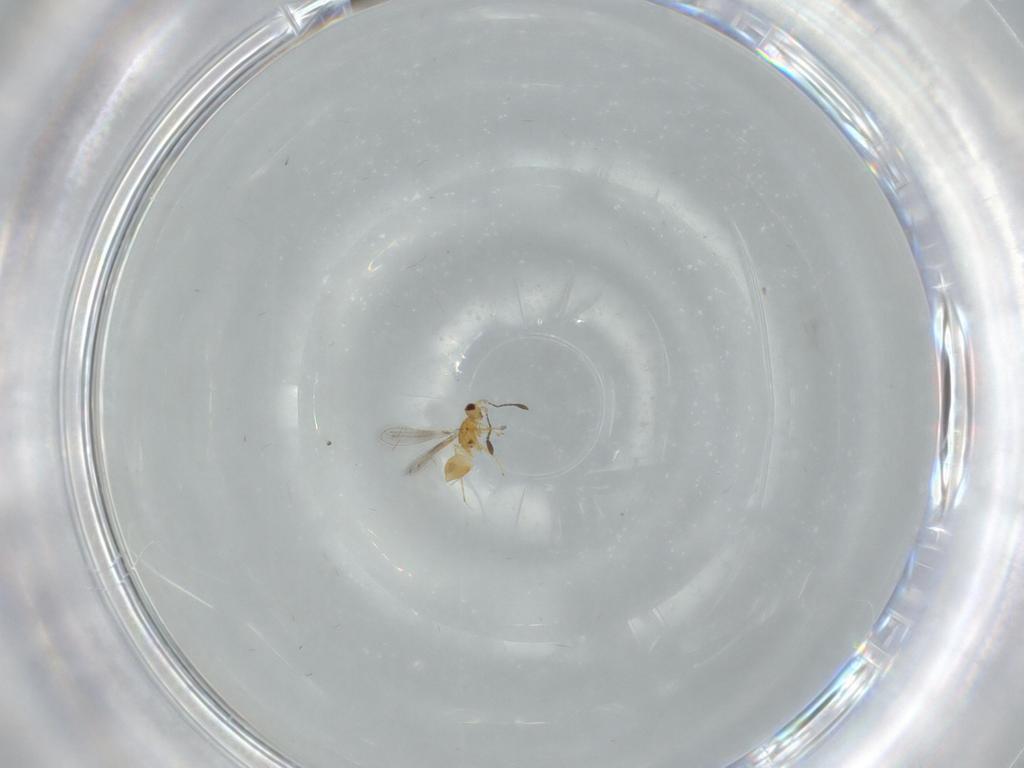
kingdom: Animalia
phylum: Arthropoda
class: Insecta
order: Hymenoptera
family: Mymaridae
